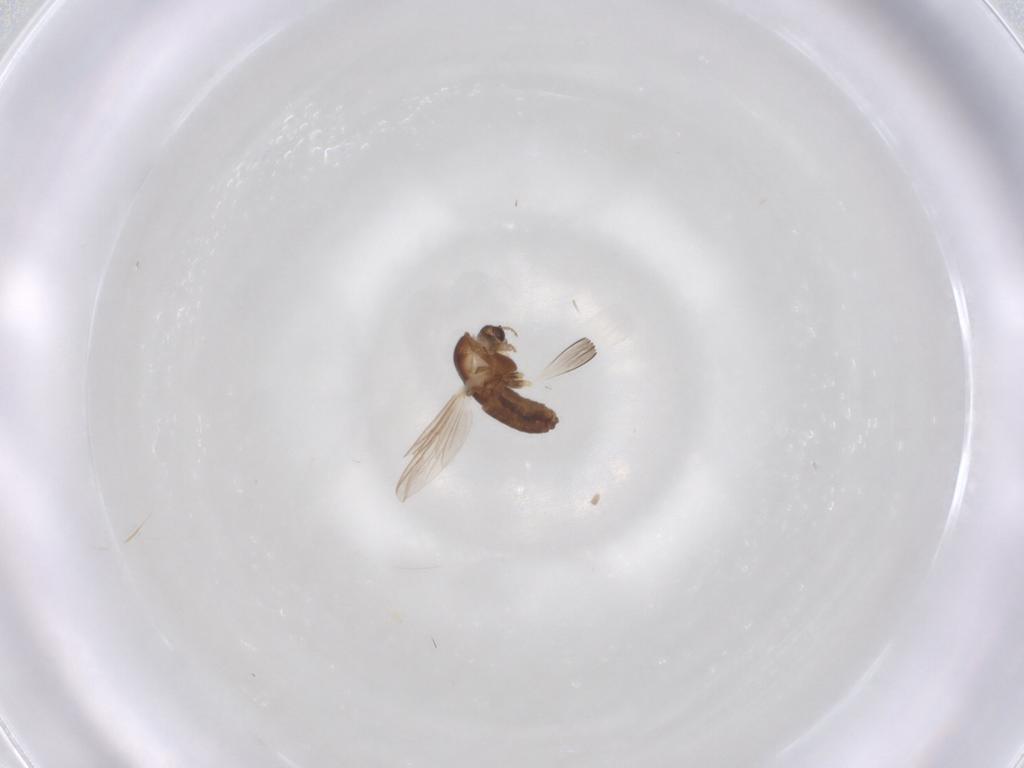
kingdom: Animalia
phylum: Arthropoda
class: Insecta
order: Diptera
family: Chironomidae
